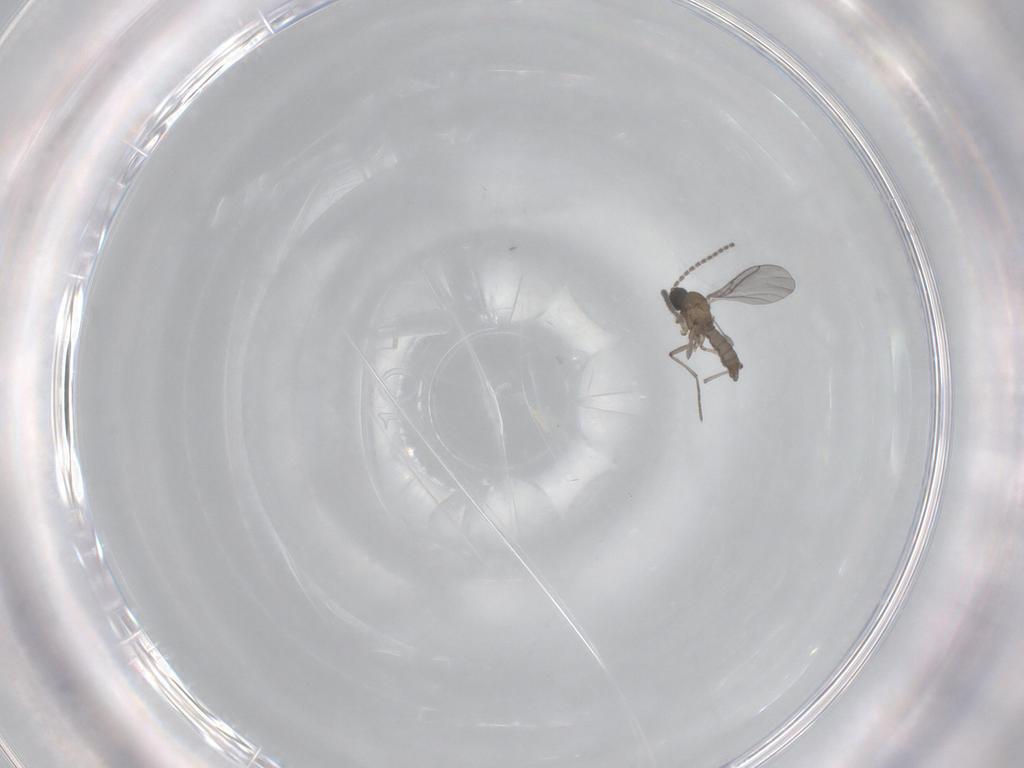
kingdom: Animalia
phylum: Arthropoda
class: Insecta
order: Diptera
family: Sciaridae
